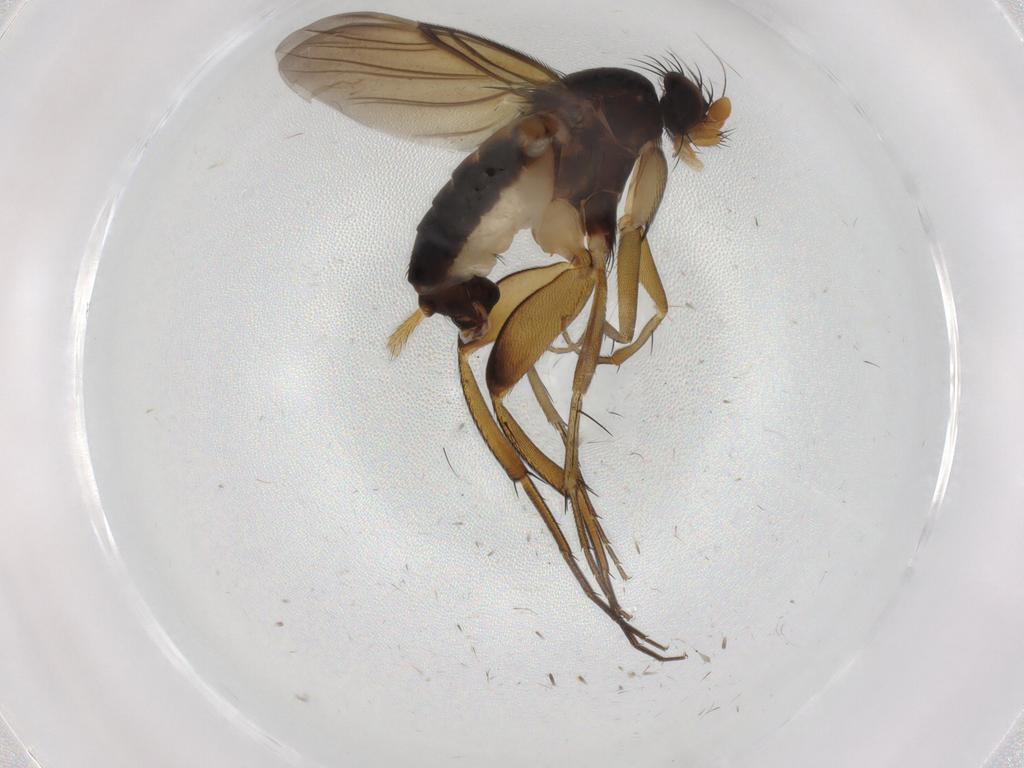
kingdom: Animalia
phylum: Arthropoda
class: Insecta
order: Diptera
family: Phoridae
